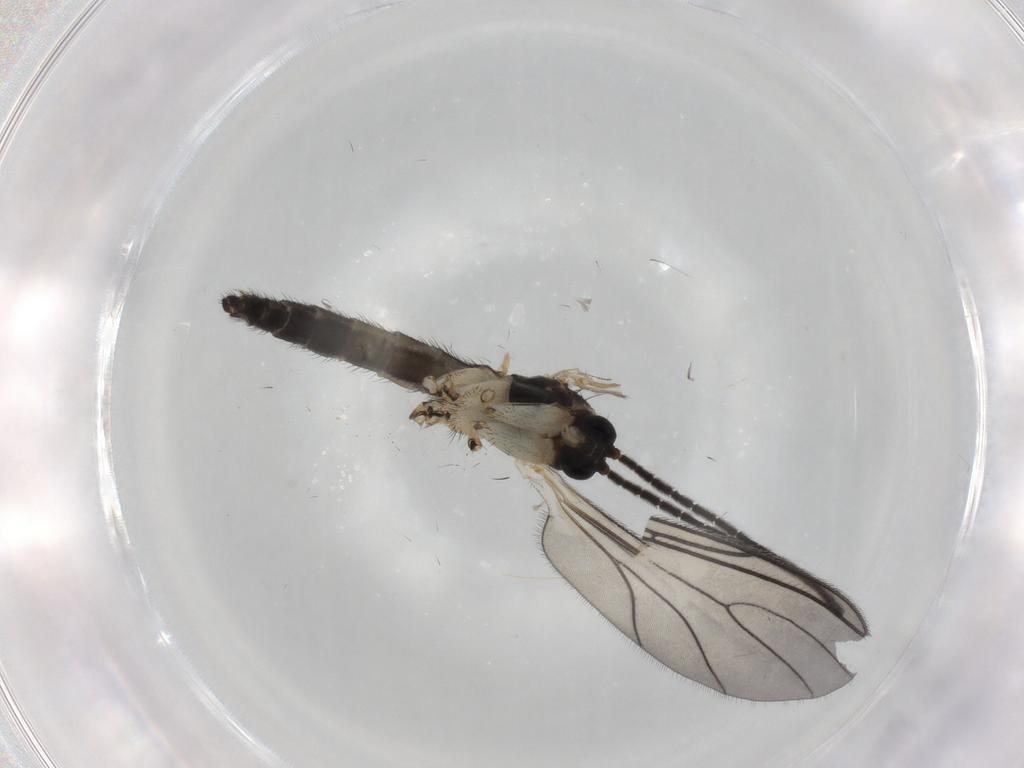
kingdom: Animalia
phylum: Arthropoda
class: Insecta
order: Diptera
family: Sciaridae
